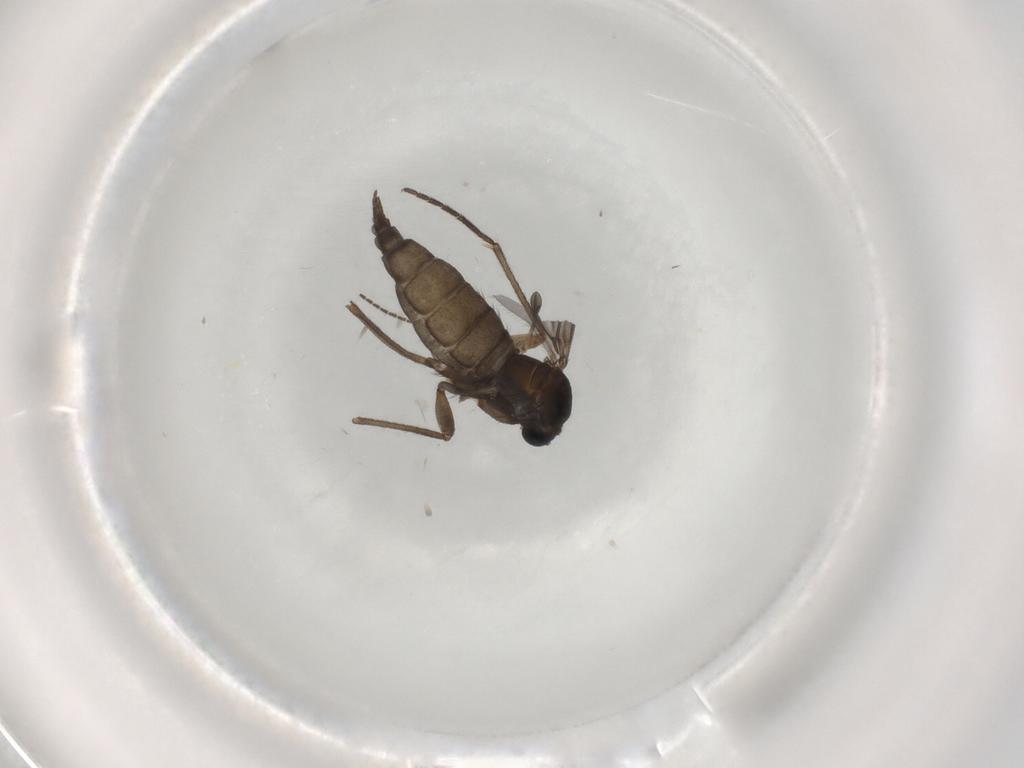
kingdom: Animalia
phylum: Arthropoda
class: Insecta
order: Diptera
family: Sciaridae
